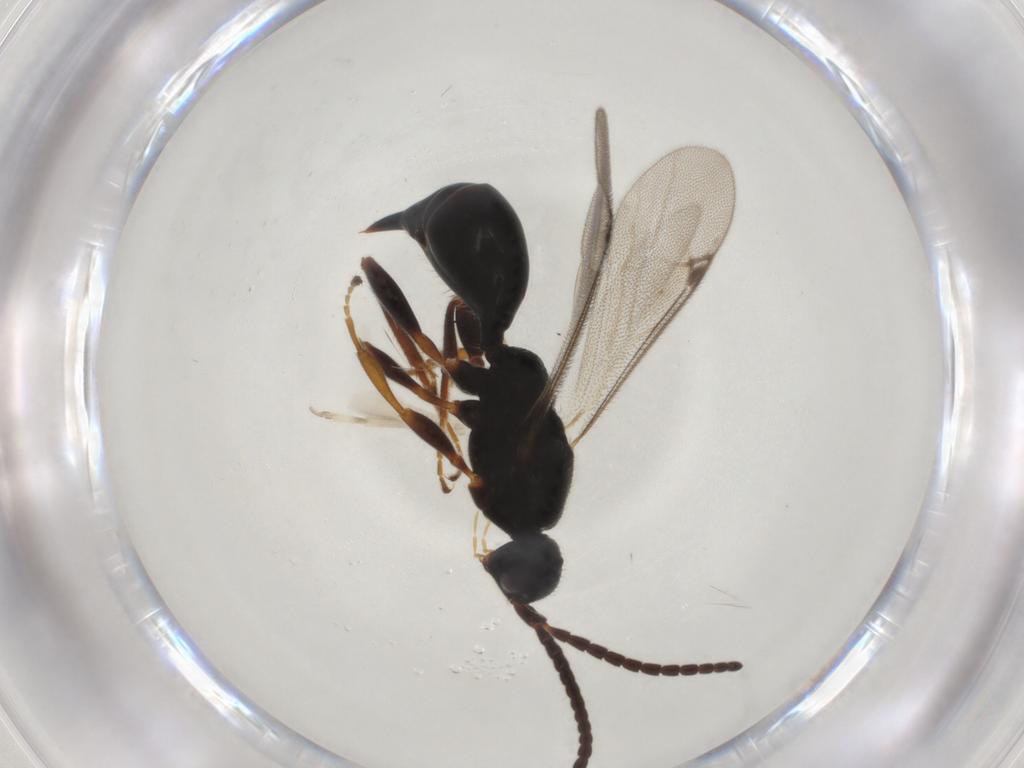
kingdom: Animalia
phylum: Arthropoda
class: Insecta
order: Hymenoptera
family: Proctotrupidae
